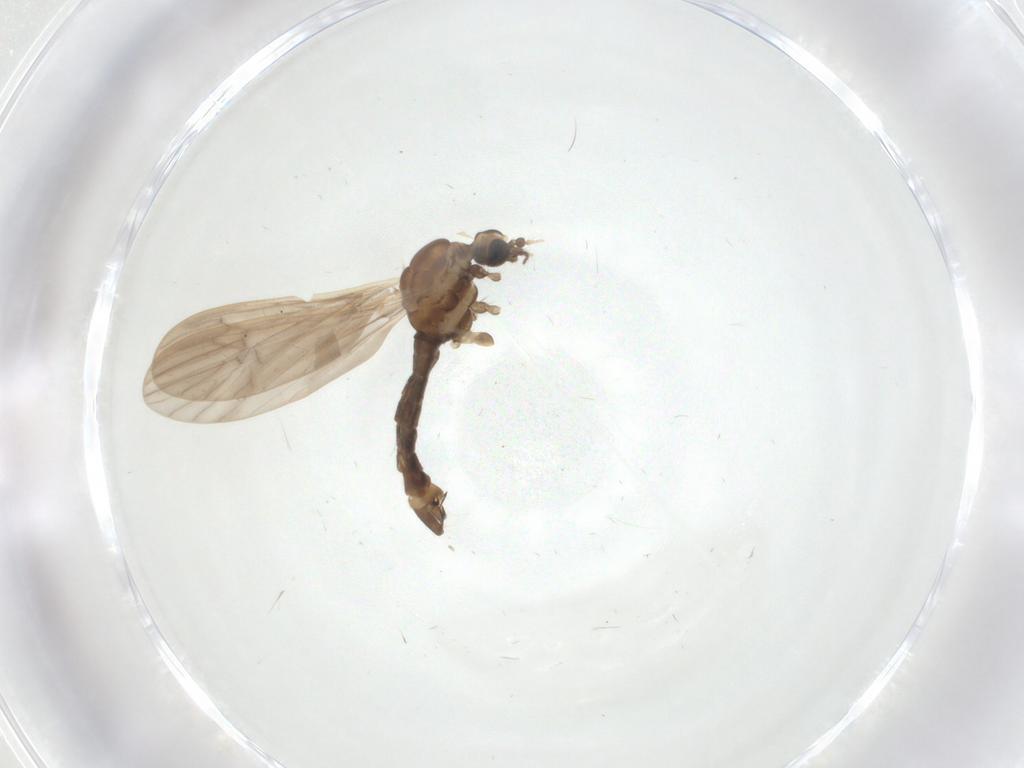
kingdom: Animalia
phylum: Arthropoda
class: Insecta
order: Diptera
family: Limoniidae
